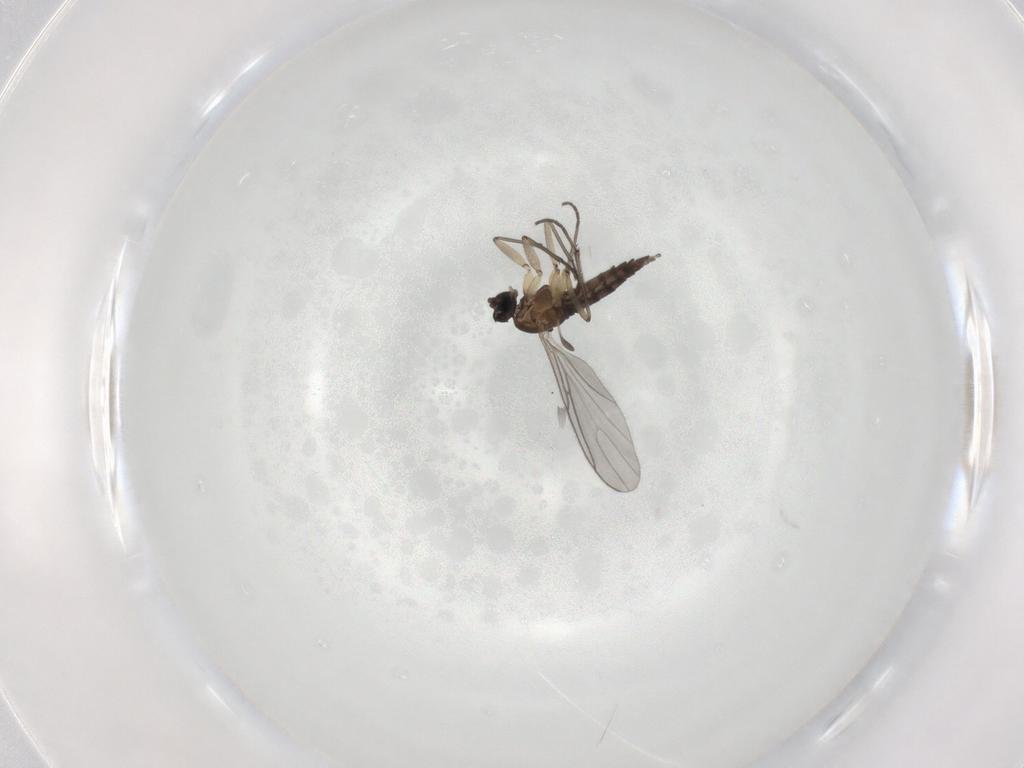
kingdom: Animalia
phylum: Arthropoda
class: Insecta
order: Diptera
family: Sciaridae
